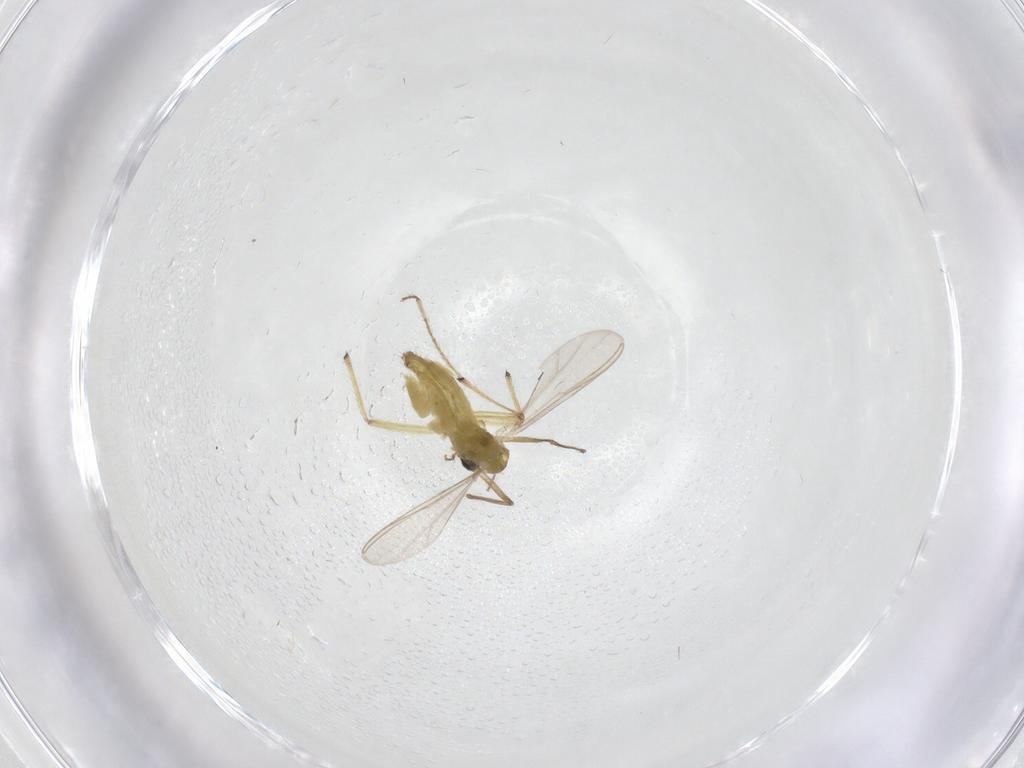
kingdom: Animalia
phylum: Arthropoda
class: Insecta
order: Diptera
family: Chironomidae
